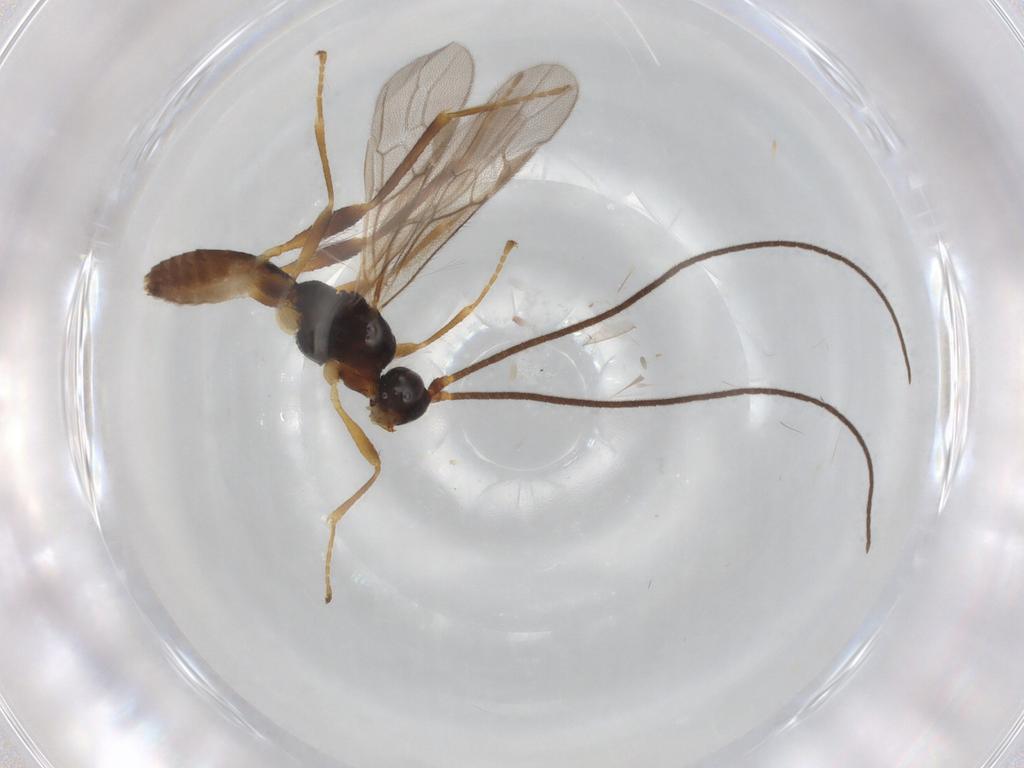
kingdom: Animalia
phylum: Arthropoda
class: Insecta
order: Hymenoptera
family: Braconidae
